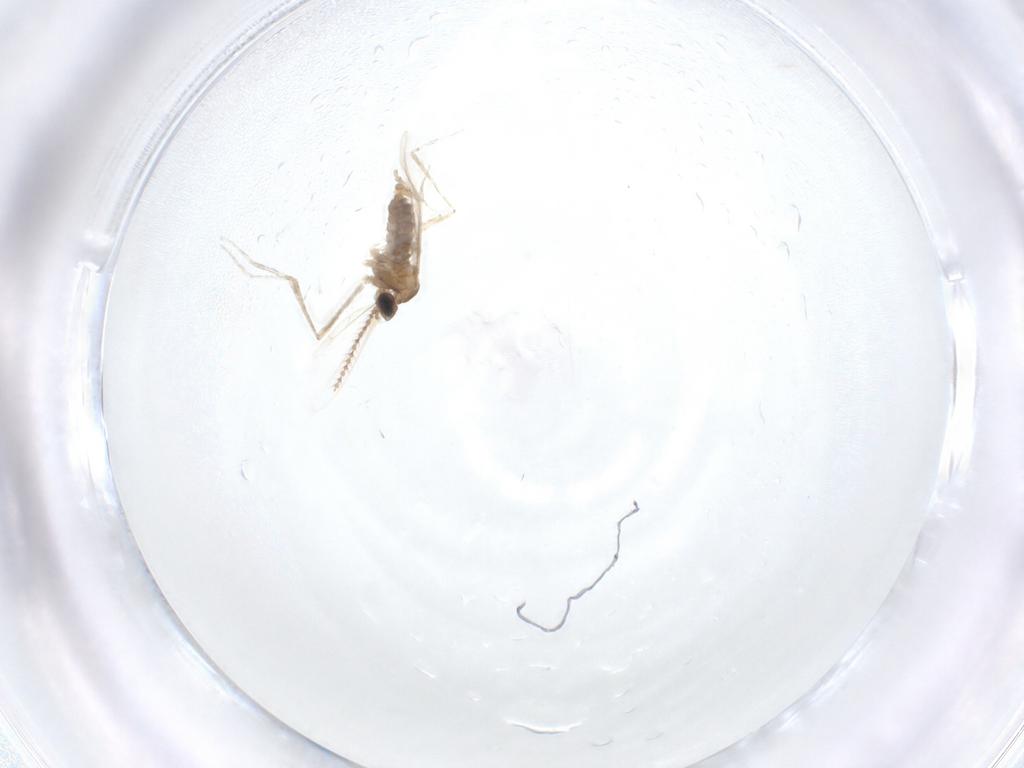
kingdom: Animalia
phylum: Arthropoda
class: Insecta
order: Diptera
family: Cecidomyiidae
